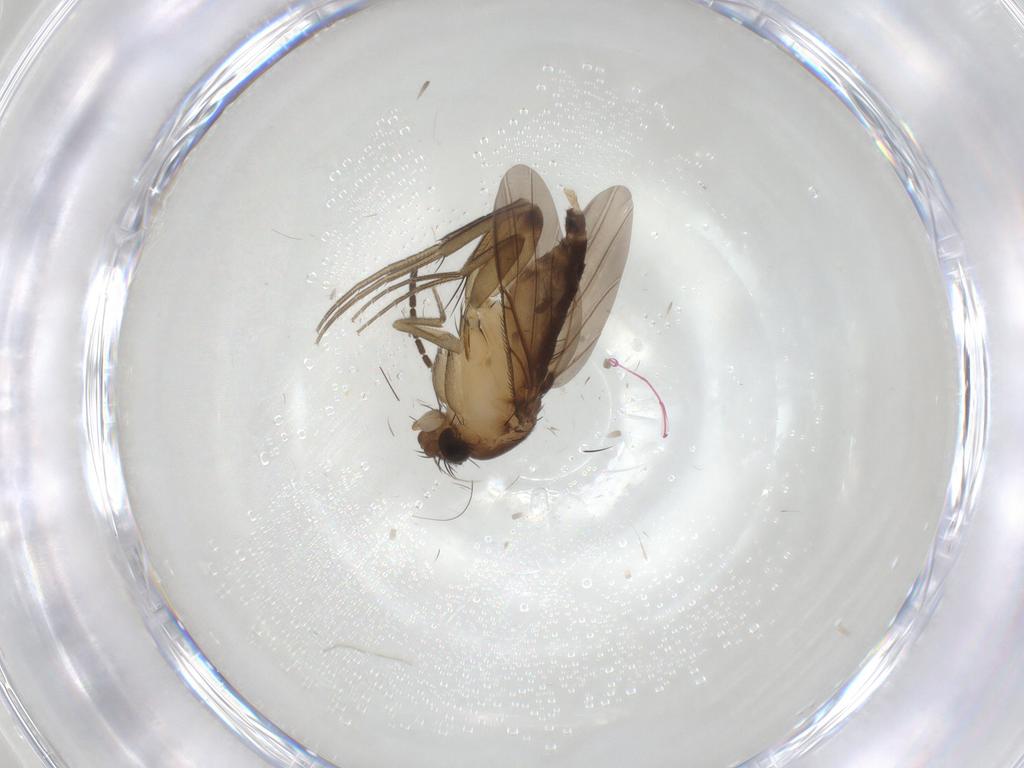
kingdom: Animalia
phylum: Arthropoda
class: Insecta
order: Diptera
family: Phoridae
